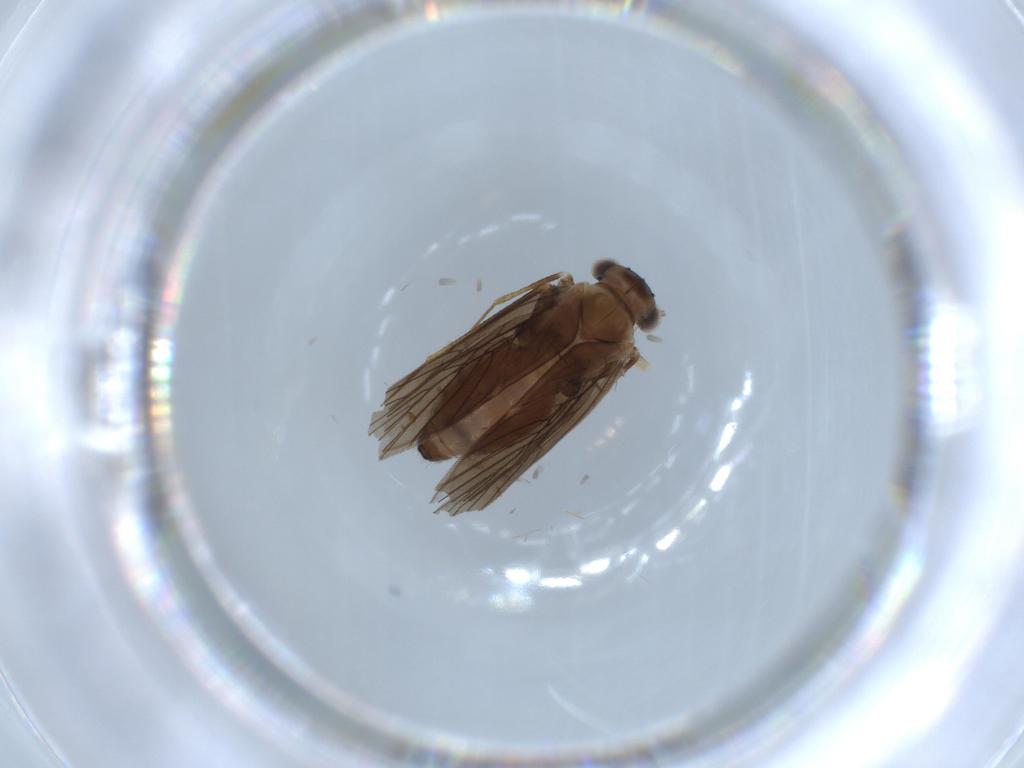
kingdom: Animalia
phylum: Arthropoda
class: Insecta
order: Psocodea
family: Lepidopsocidae
